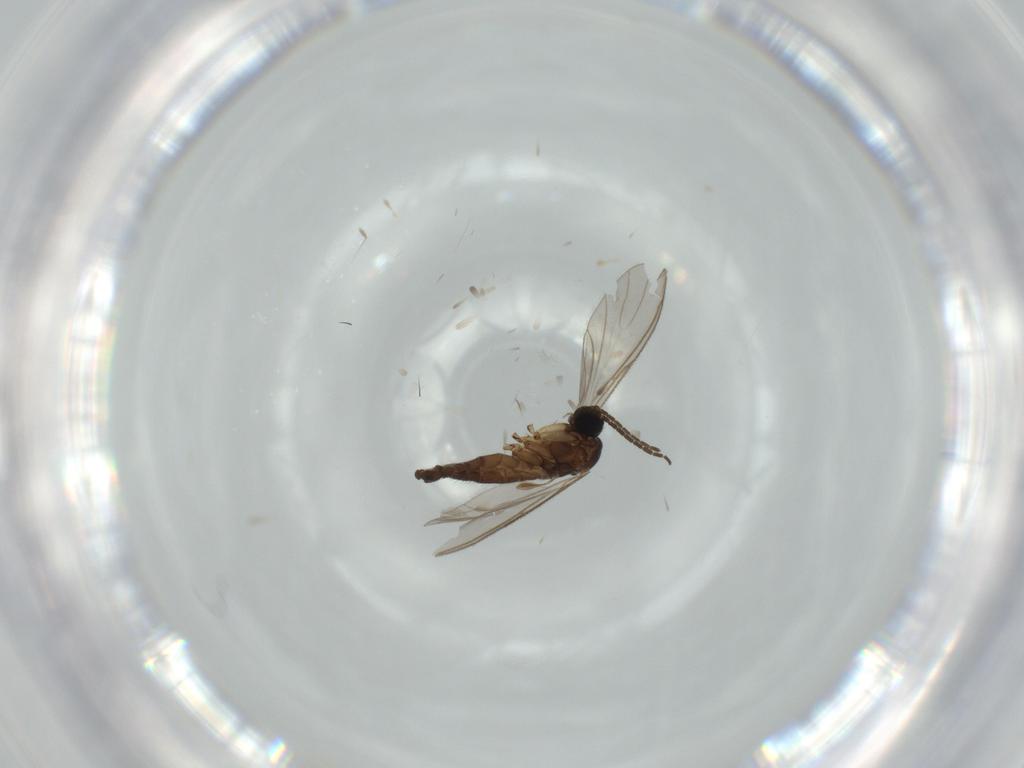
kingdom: Animalia
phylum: Arthropoda
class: Insecta
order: Diptera
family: Sciaridae
